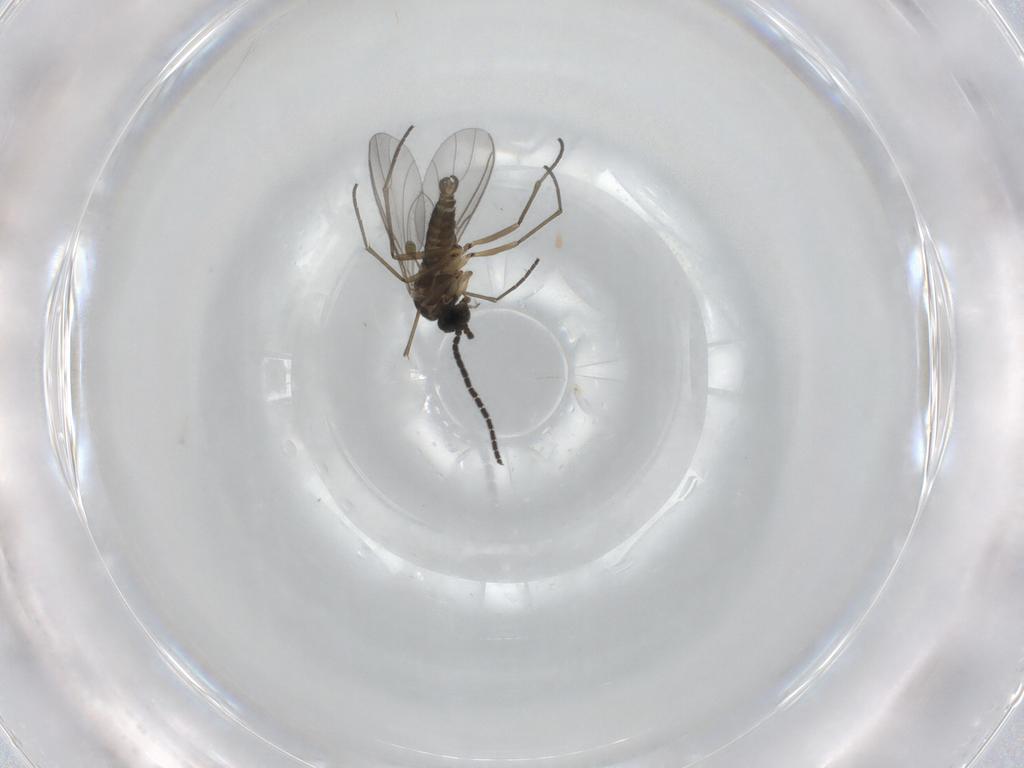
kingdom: Animalia
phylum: Arthropoda
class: Insecta
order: Diptera
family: Sciaridae
